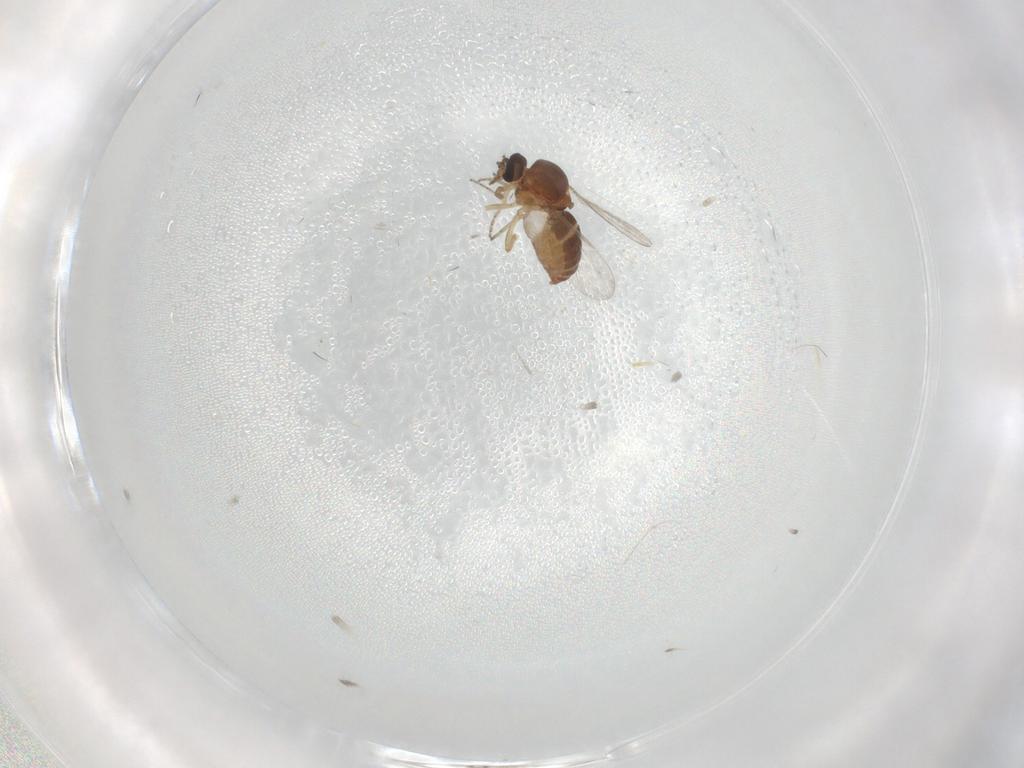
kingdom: Animalia
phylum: Arthropoda
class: Insecta
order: Diptera
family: Ceratopogonidae
